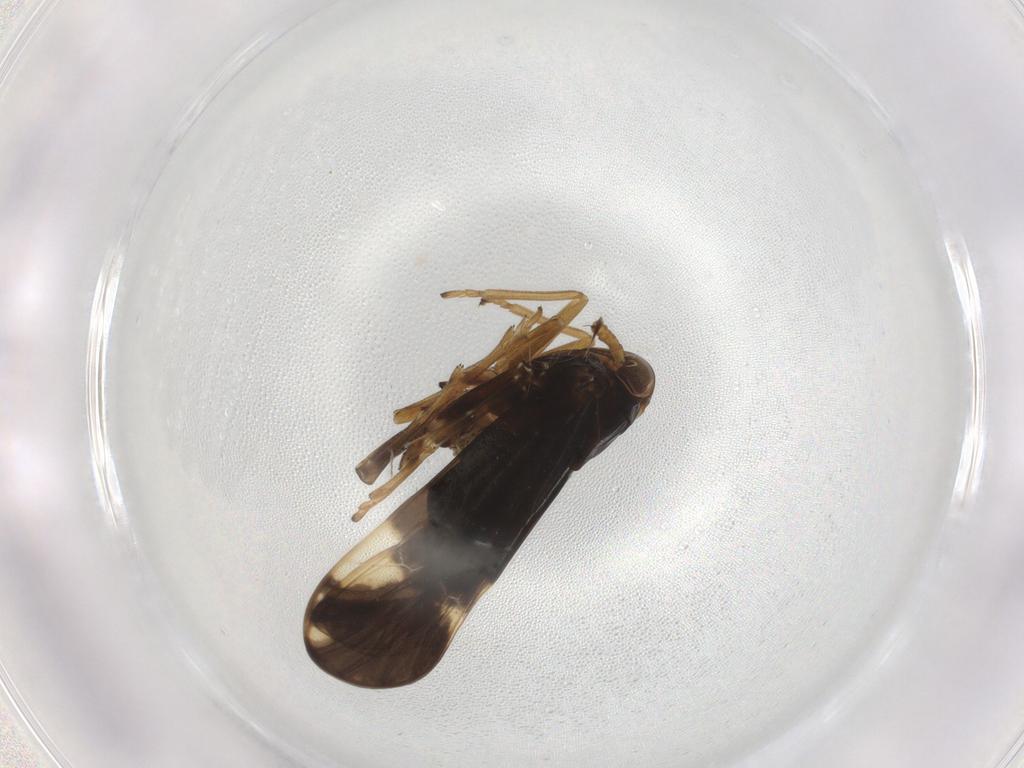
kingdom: Animalia
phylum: Arthropoda
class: Insecta
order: Hemiptera
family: Delphacidae
